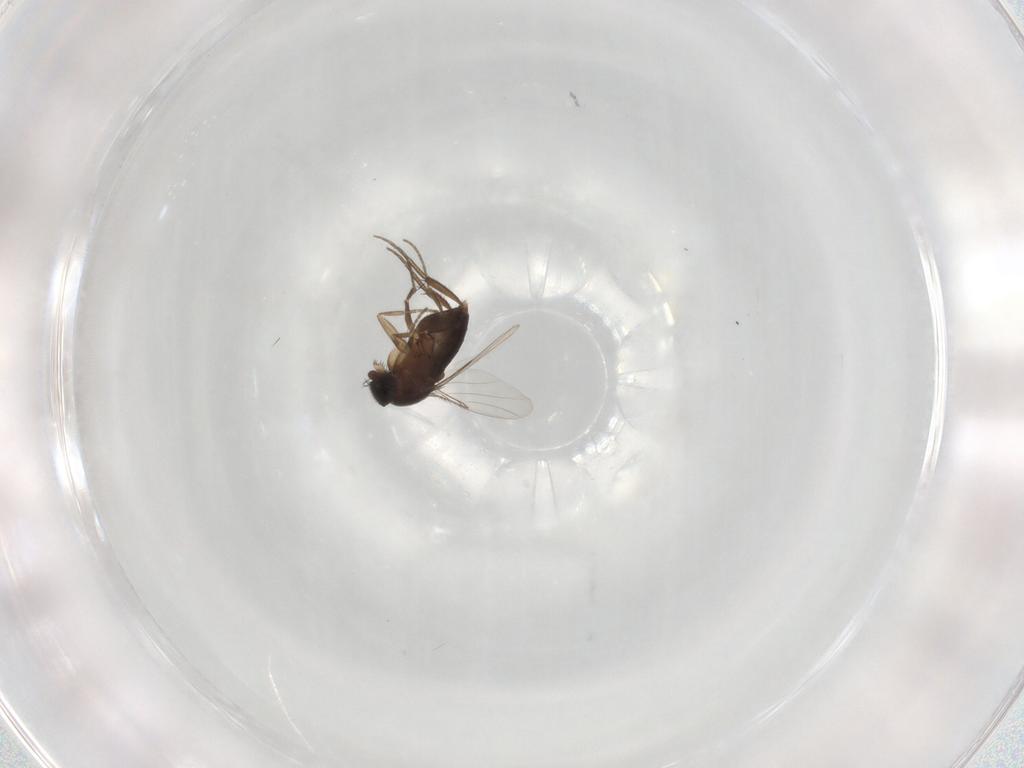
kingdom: Animalia
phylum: Arthropoda
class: Insecta
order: Diptera
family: Phoridae
